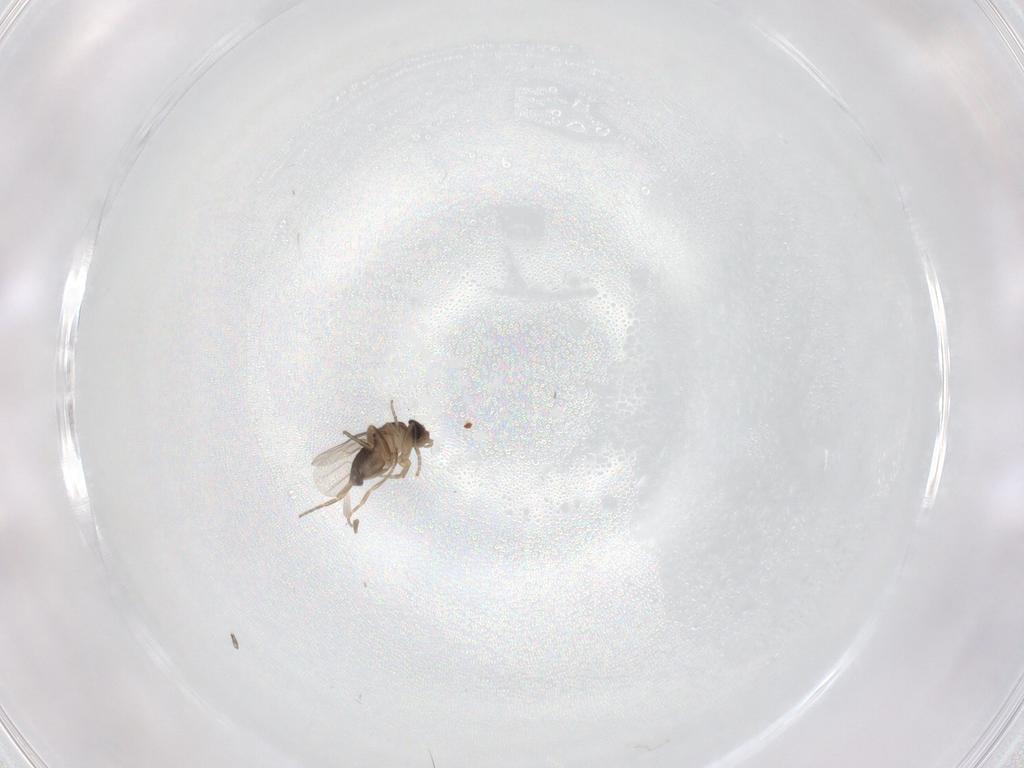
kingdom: Animalia
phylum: Arthropoda
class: Insecta
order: Diptera
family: Phoridae
